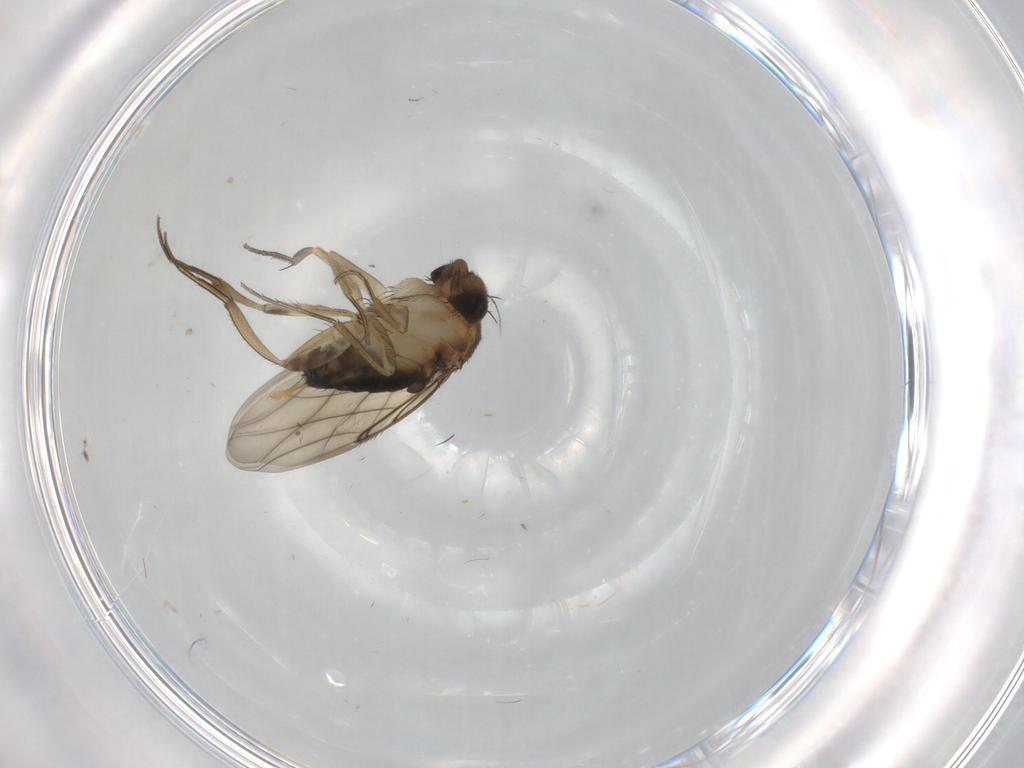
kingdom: Animalia
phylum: Arthropoda
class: Insecta
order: Diptera
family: Phoridae
